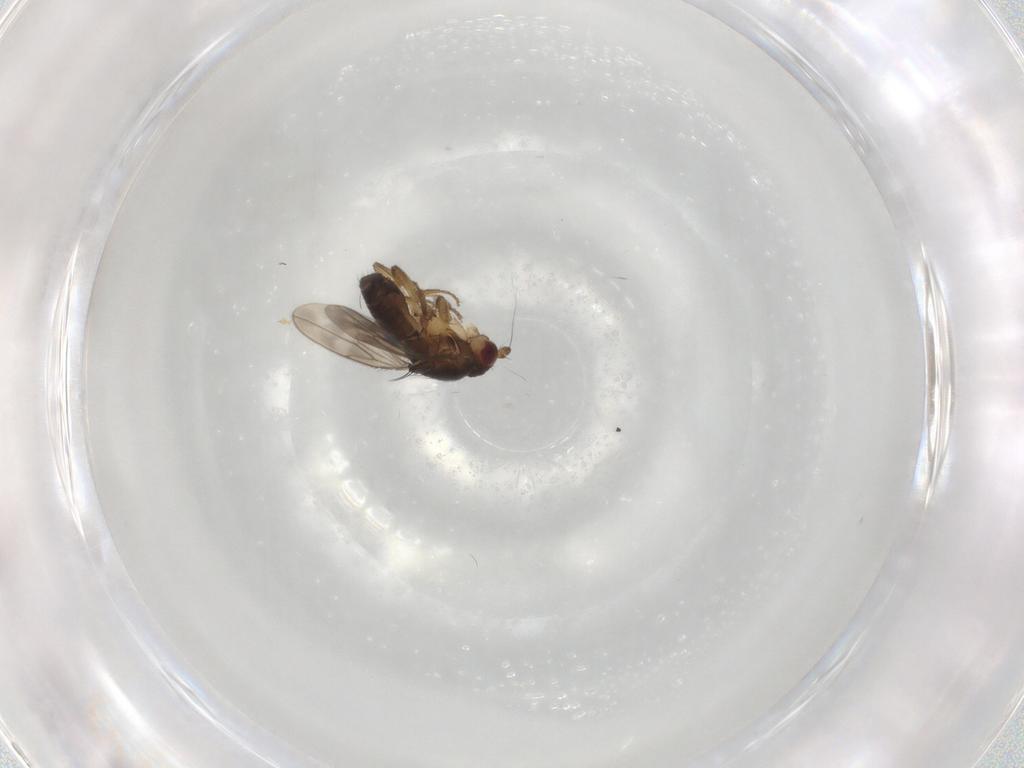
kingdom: Animalia
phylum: Arthropoda
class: Insecta
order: Diptera
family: Sphaeroceridae
